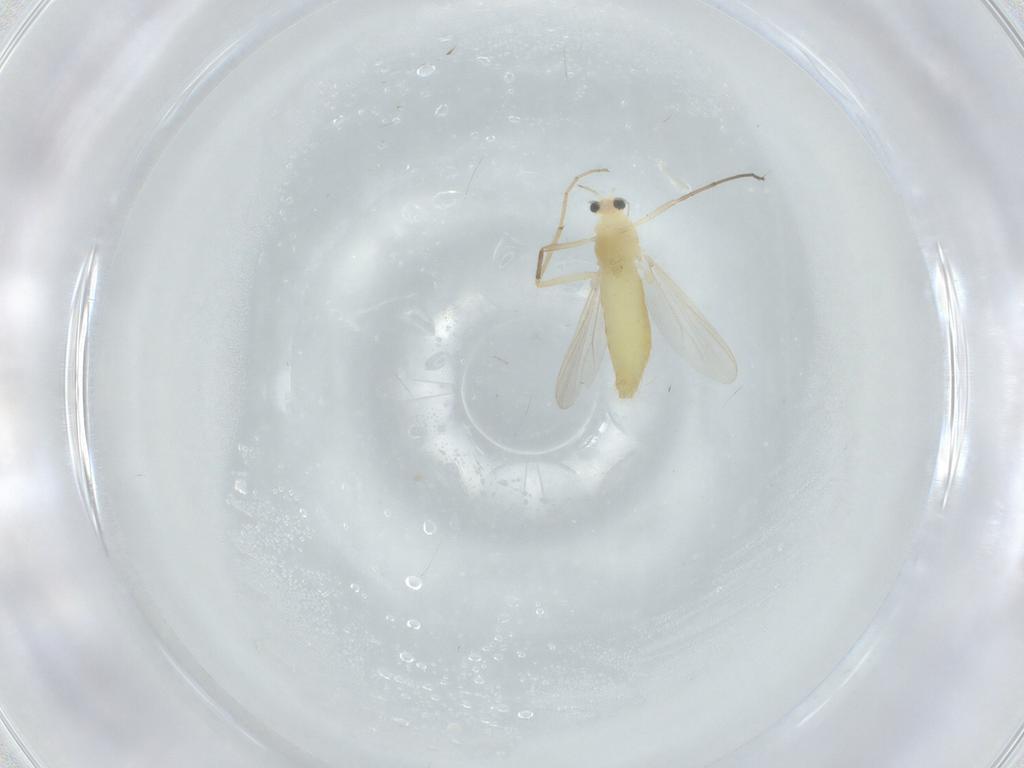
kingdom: Animalia
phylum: Arthropoda
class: Insecta
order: Diptera
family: Chironomidae
